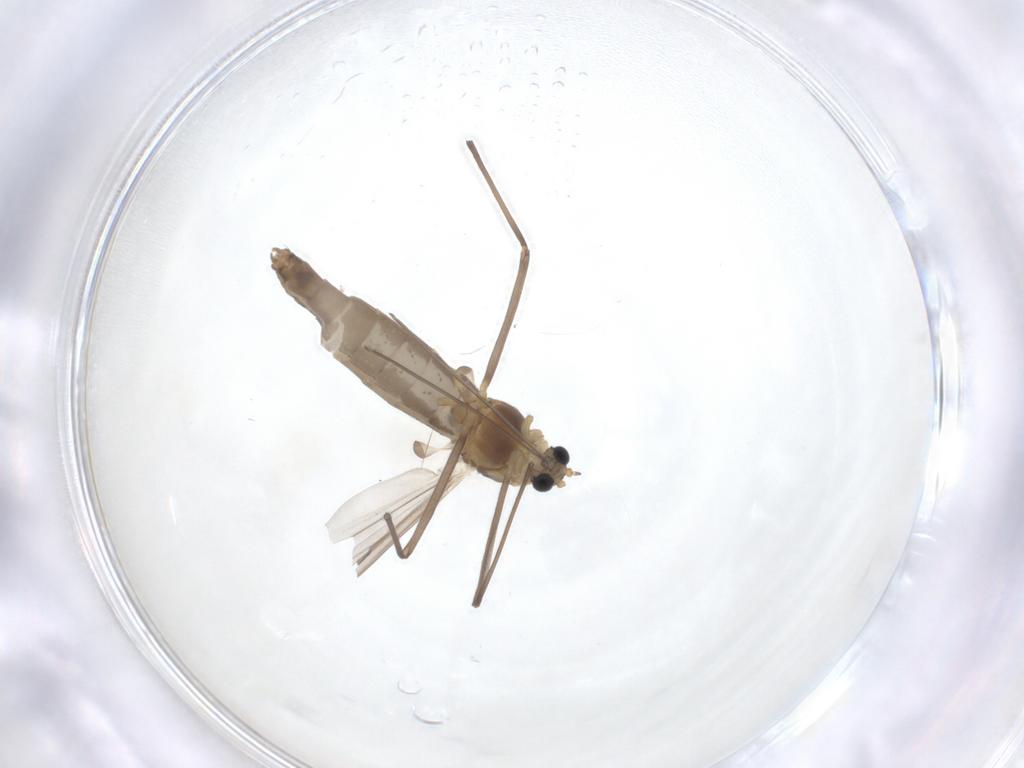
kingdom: Animalia
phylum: Arthropoda
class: Insecta
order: Diptera
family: Chironomidae
